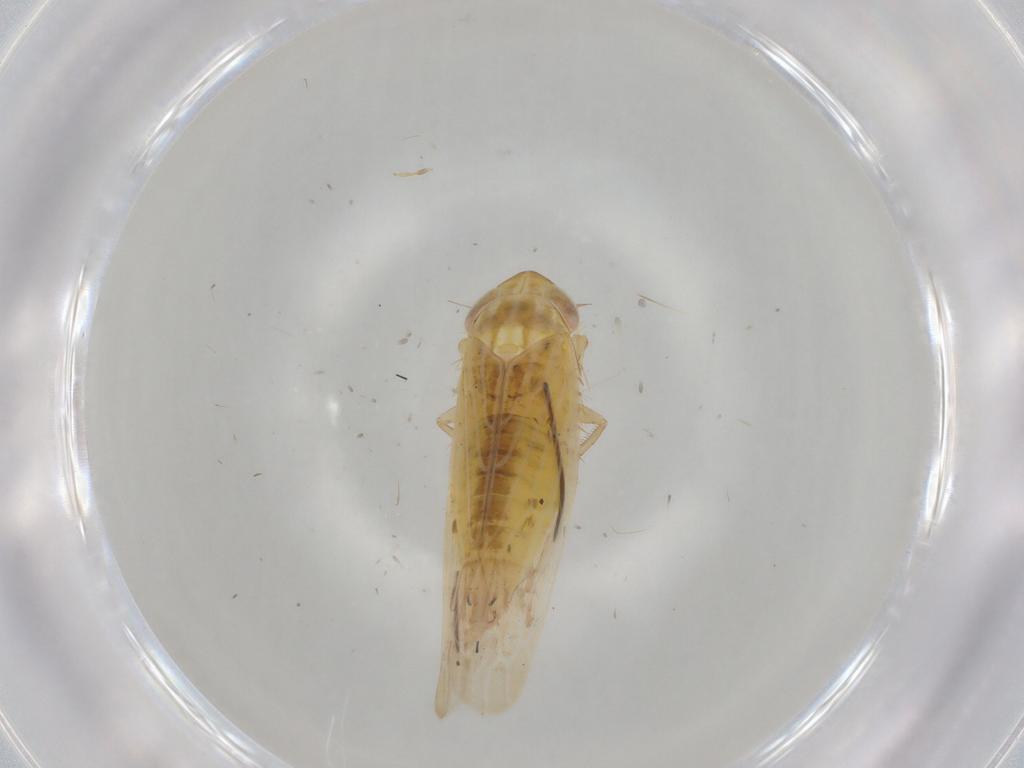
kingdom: Animalia
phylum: Arthropoda
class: Insecta
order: Hemiptera
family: Cicadellidae
